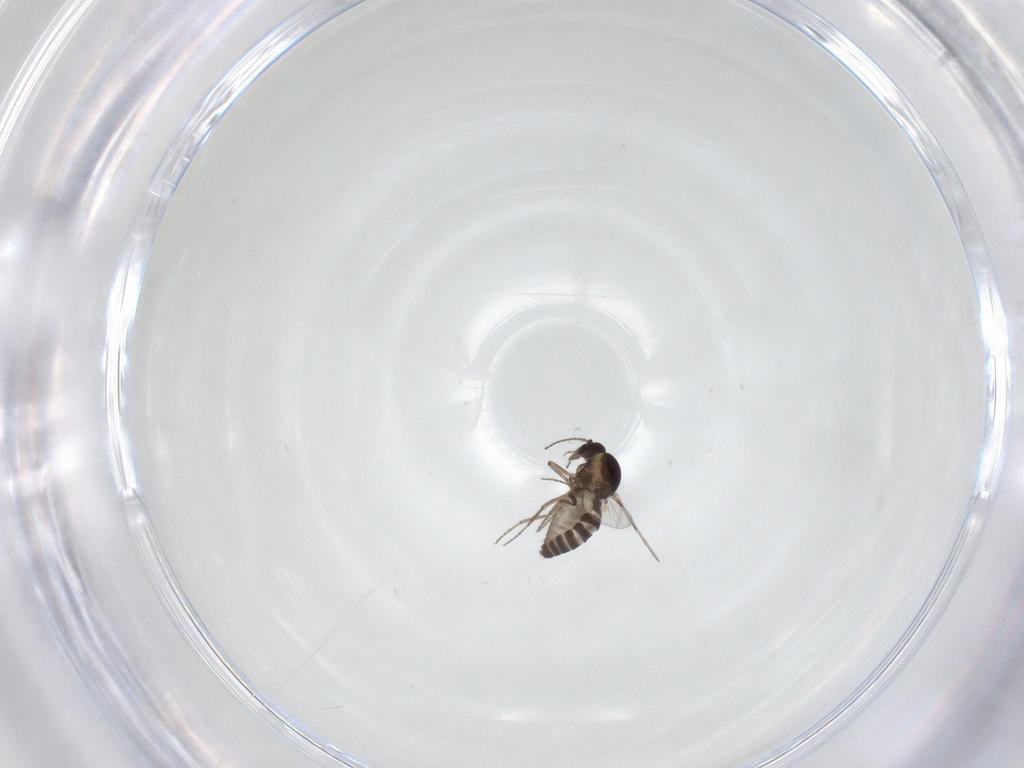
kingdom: Animalia
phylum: Arthropoda
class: Insecta
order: Diptera
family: Ceratopogonidae
